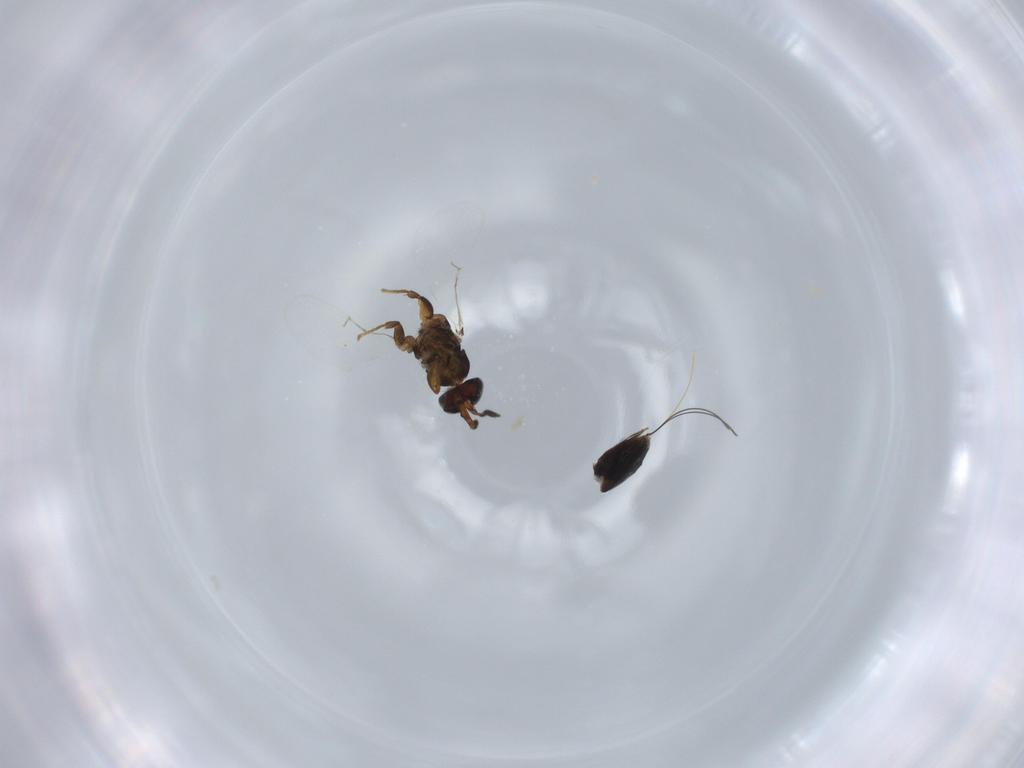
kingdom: Animalia
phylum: Arthropoda
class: Insecta
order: Hymenoptera
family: Agaonidae
